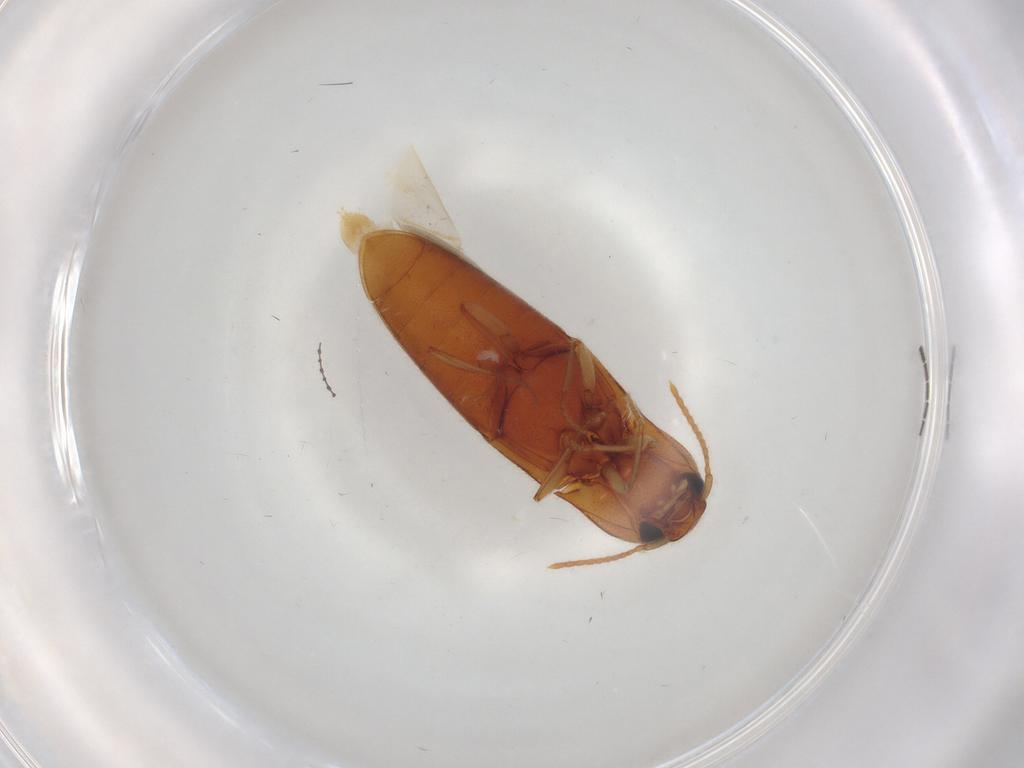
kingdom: Animalia
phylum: Arthropoda
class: Insecta
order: Coleoptera
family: Elateridae
